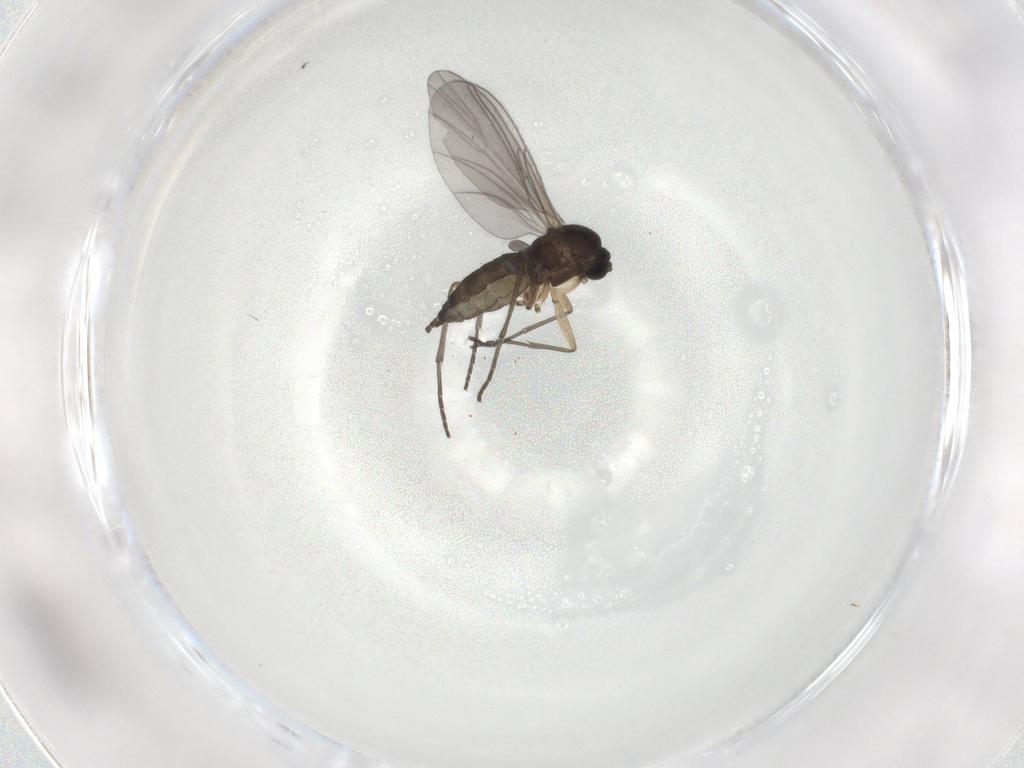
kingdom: Animalia
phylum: Arthropoda
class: Insecta
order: Diptera
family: Sciaridae
